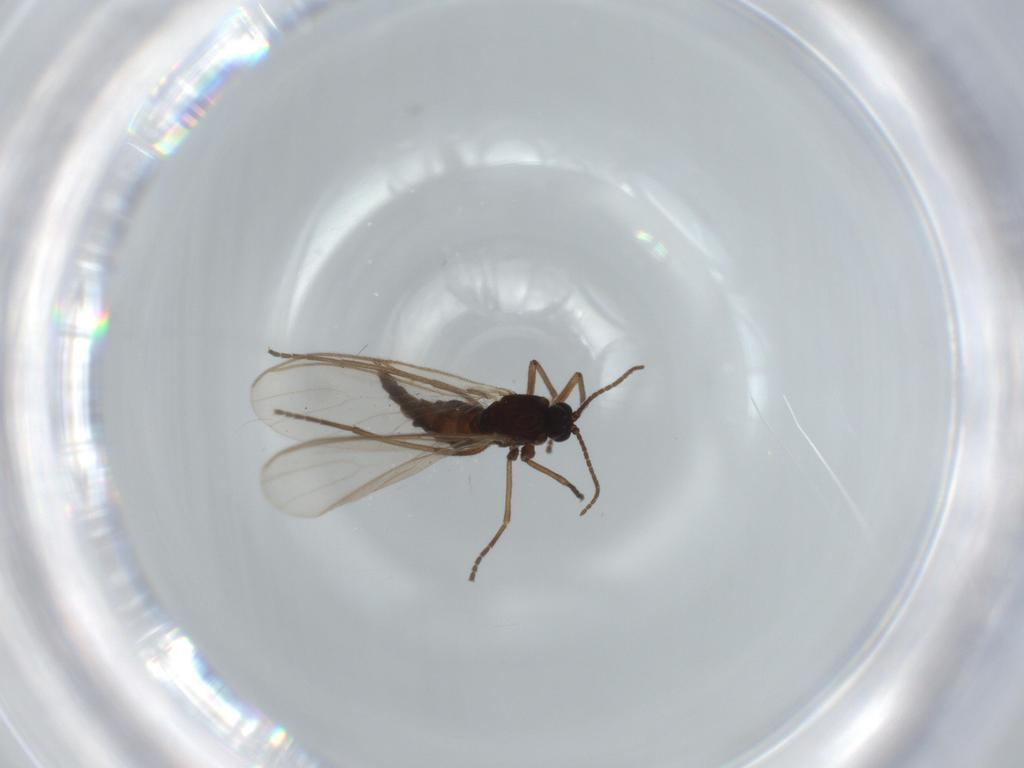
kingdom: Animalia
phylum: Arthropoda
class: Insecta
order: Diptera
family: Sciaridae
